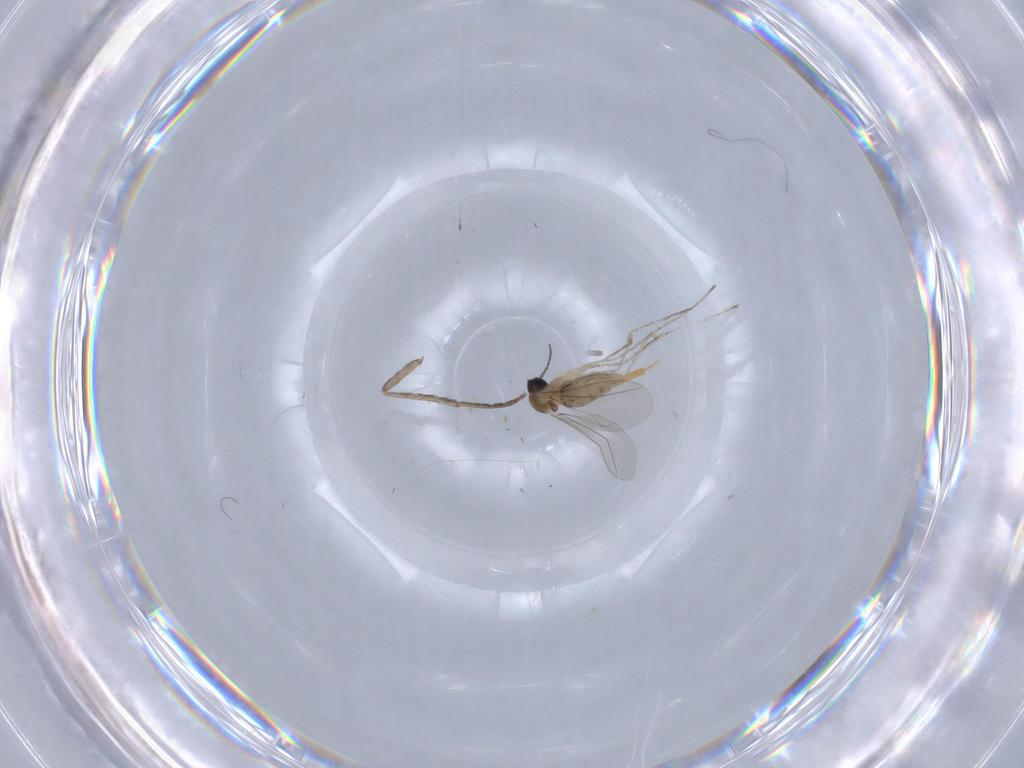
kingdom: Animalia
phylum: Arthropoda
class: Insecta
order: Diptera
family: Cecidomyiidae
